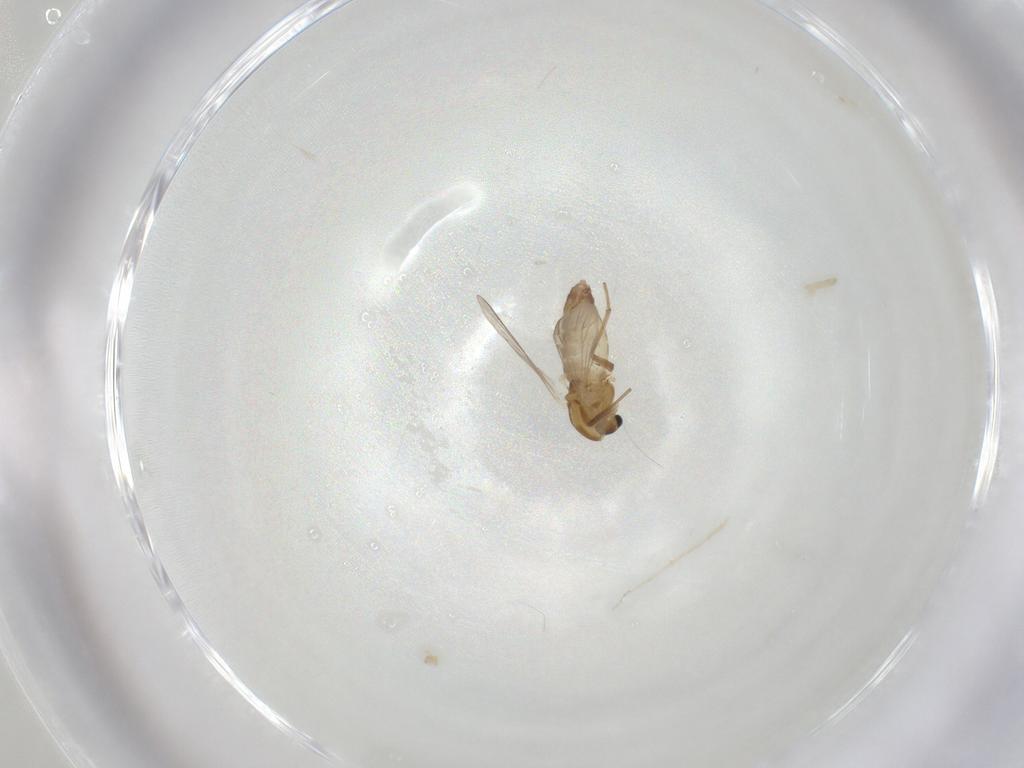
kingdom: Animalia
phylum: Arthropoda
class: Insecta
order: Diptera
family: Chironomidae
